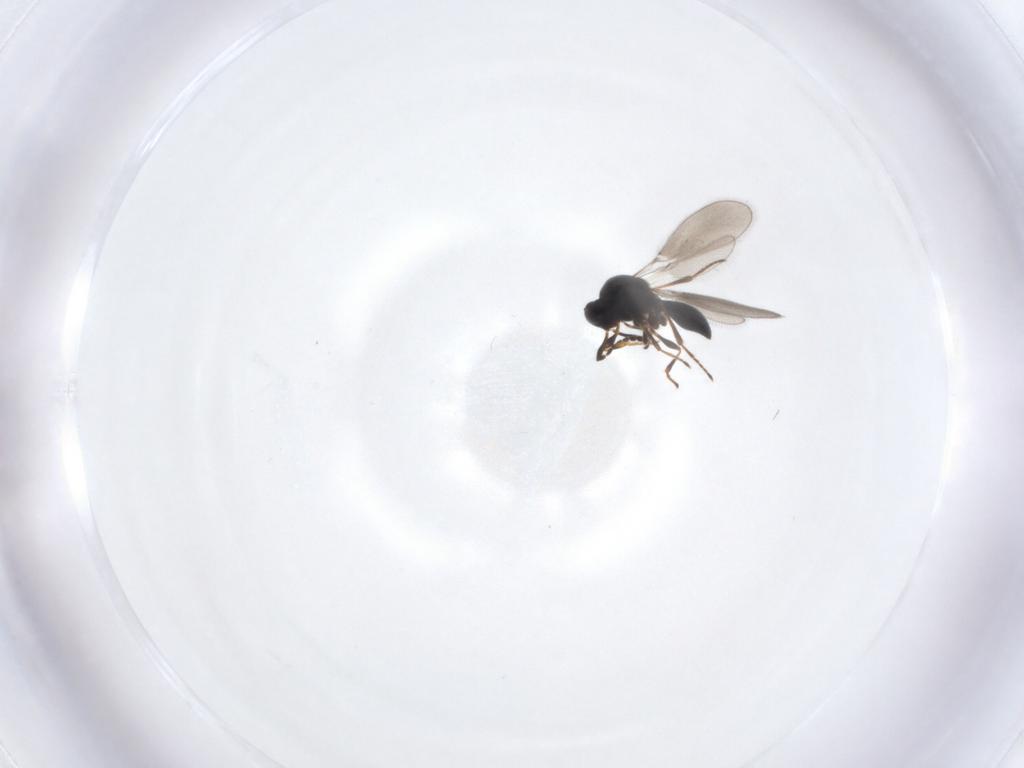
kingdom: Animalia
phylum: Arthropoda
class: Insecta
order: Hymenoptera
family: Platygastridae
